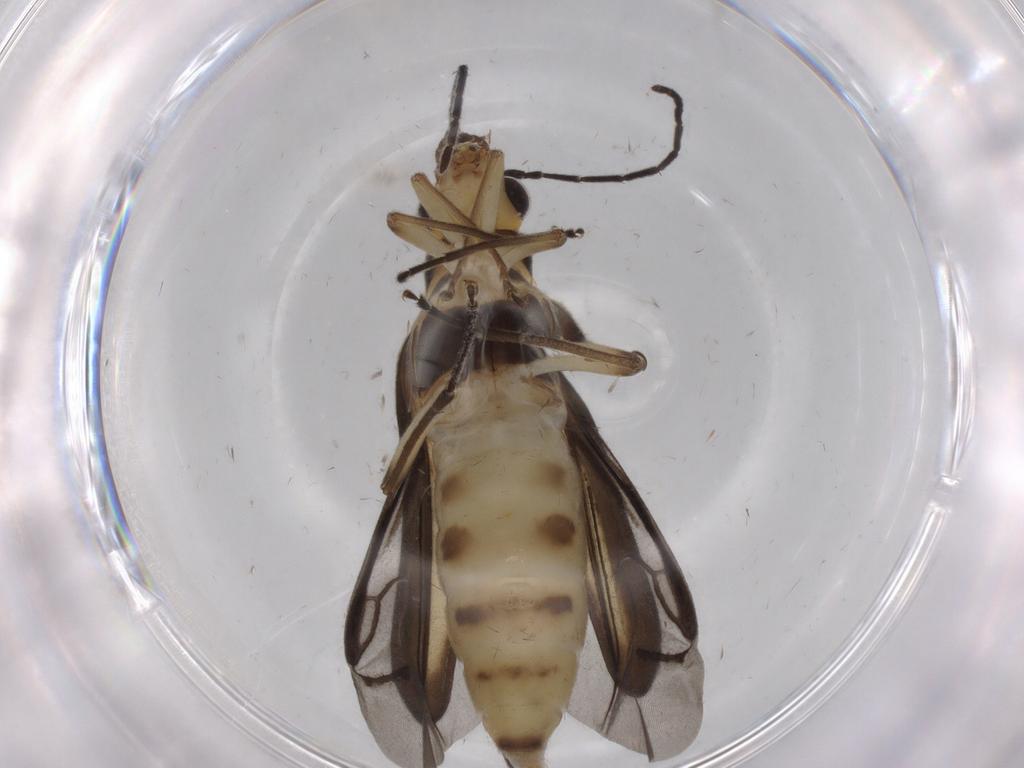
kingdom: Animalia
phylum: Arthropoda
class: Insecta
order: Coleoptera
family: Oedemeridae
